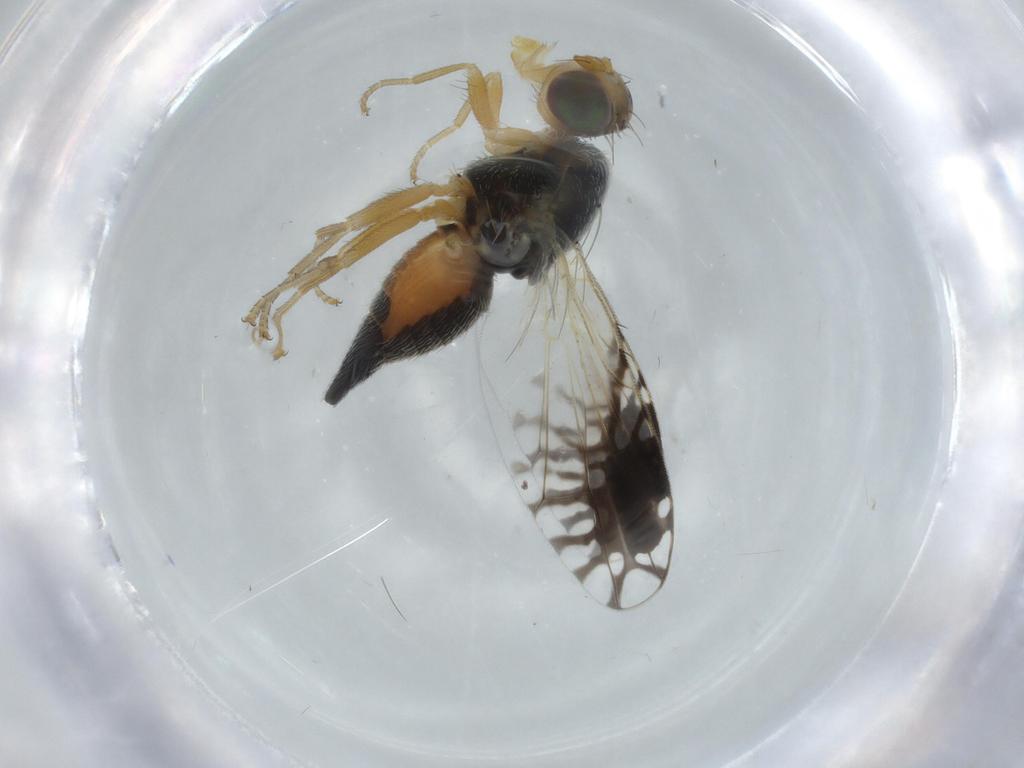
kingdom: Animalia
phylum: Arthropoda
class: Insecta
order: Diptera
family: Tephritidae
